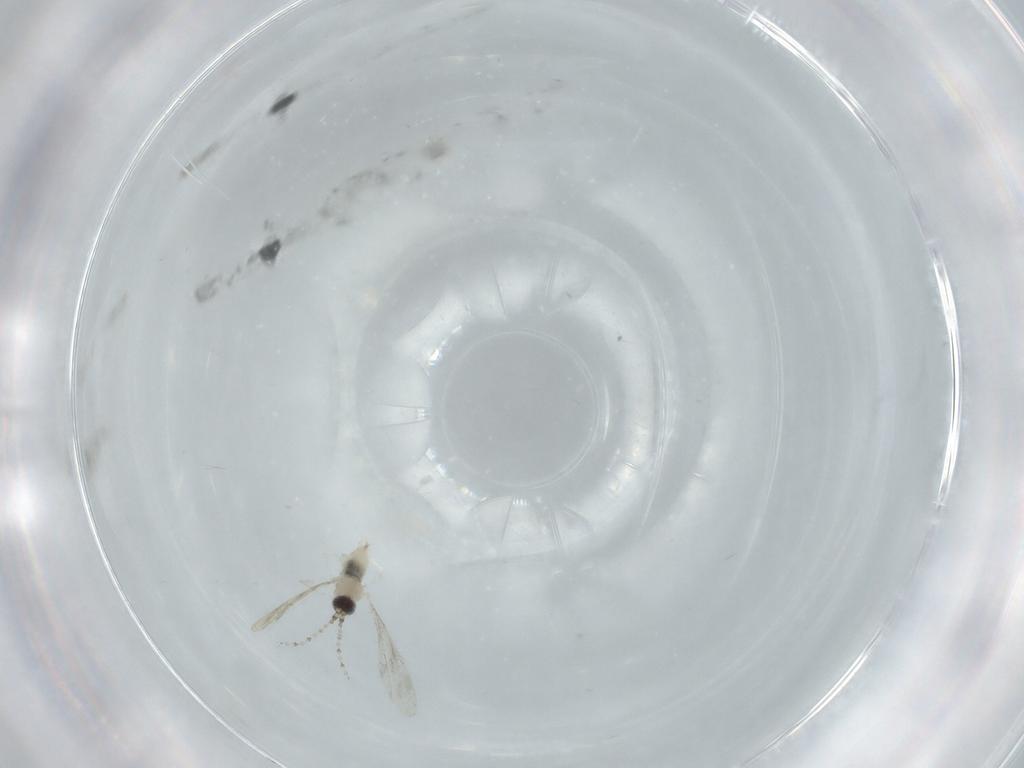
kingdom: Animalia
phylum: Arthropoda
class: Insecta
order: Diptera
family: Cecidomyiidae
